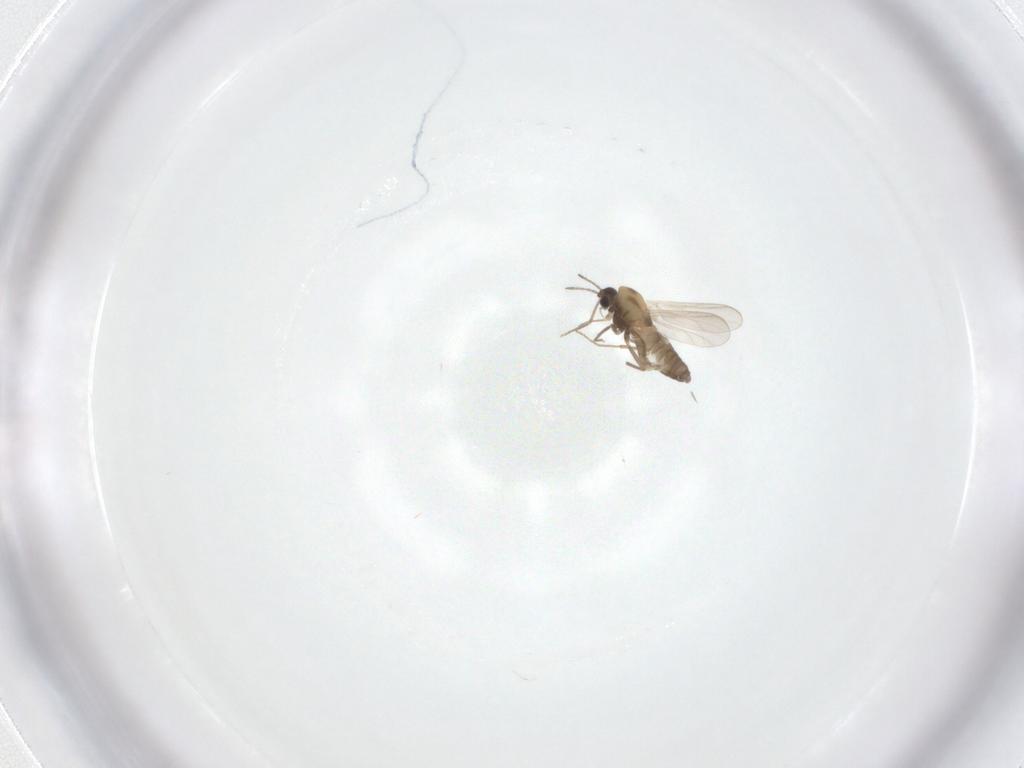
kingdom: Animalia
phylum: Arthropoda
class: Insecta
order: Diptera
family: Chironomidae
